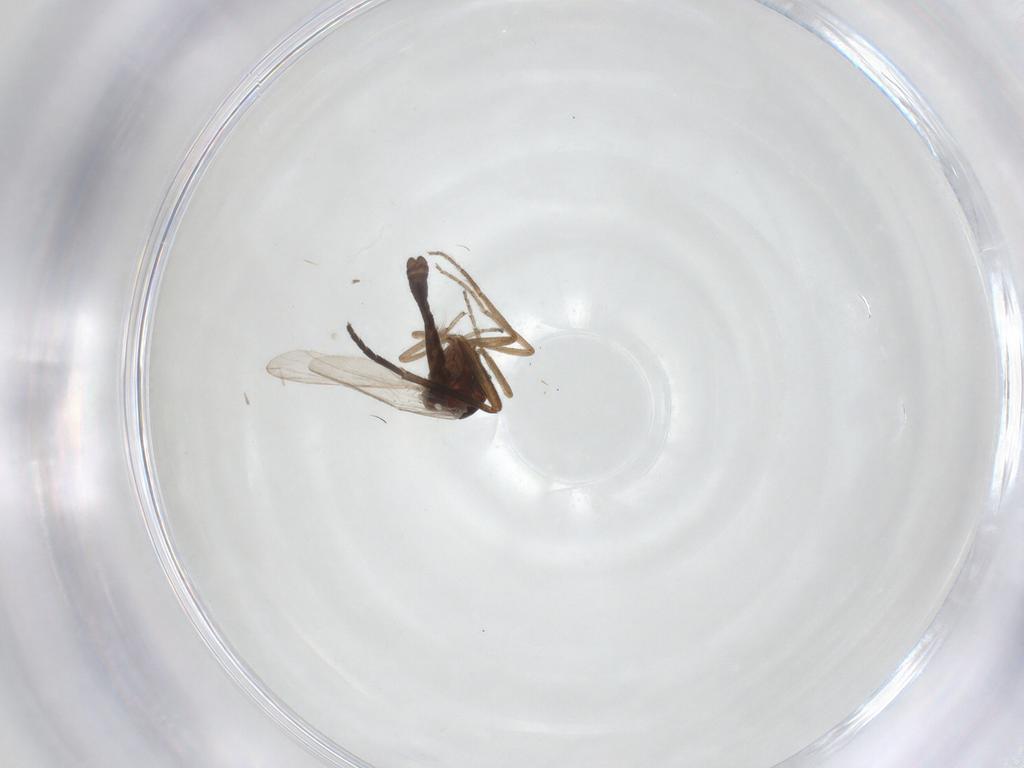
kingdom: Animalia
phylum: Arthropoda
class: Insecta
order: Diptera
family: Ceratopogonidae
